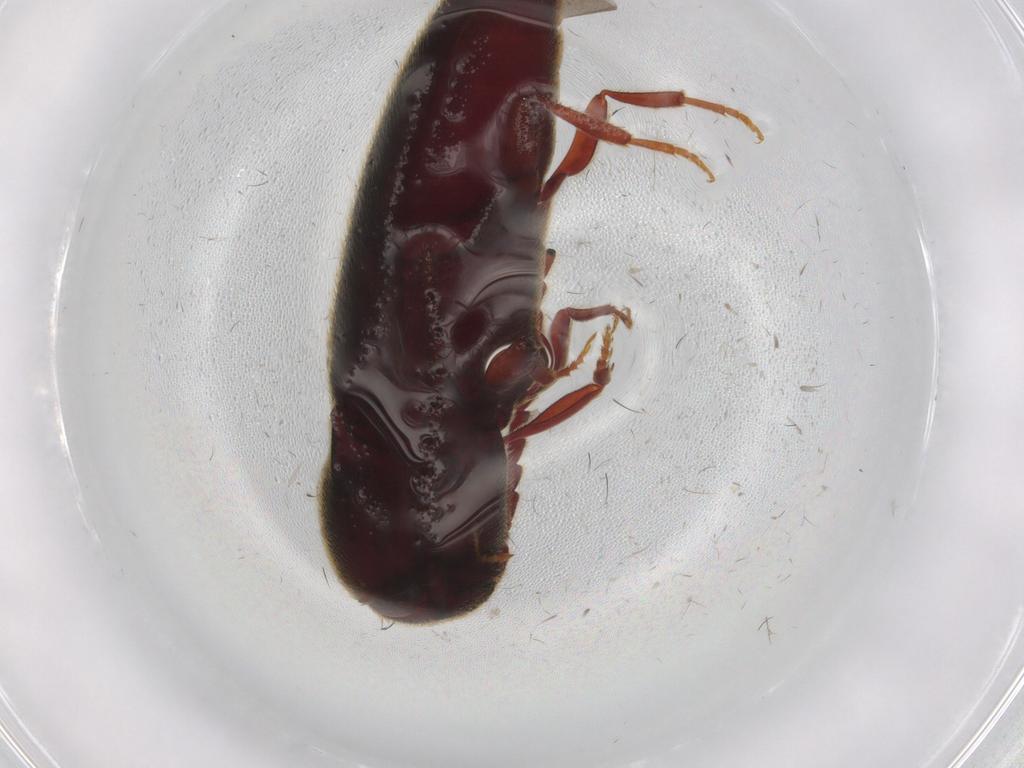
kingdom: Animalia
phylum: Arthropoda
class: Insecta
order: Coleoptera
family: Eucnemidae
